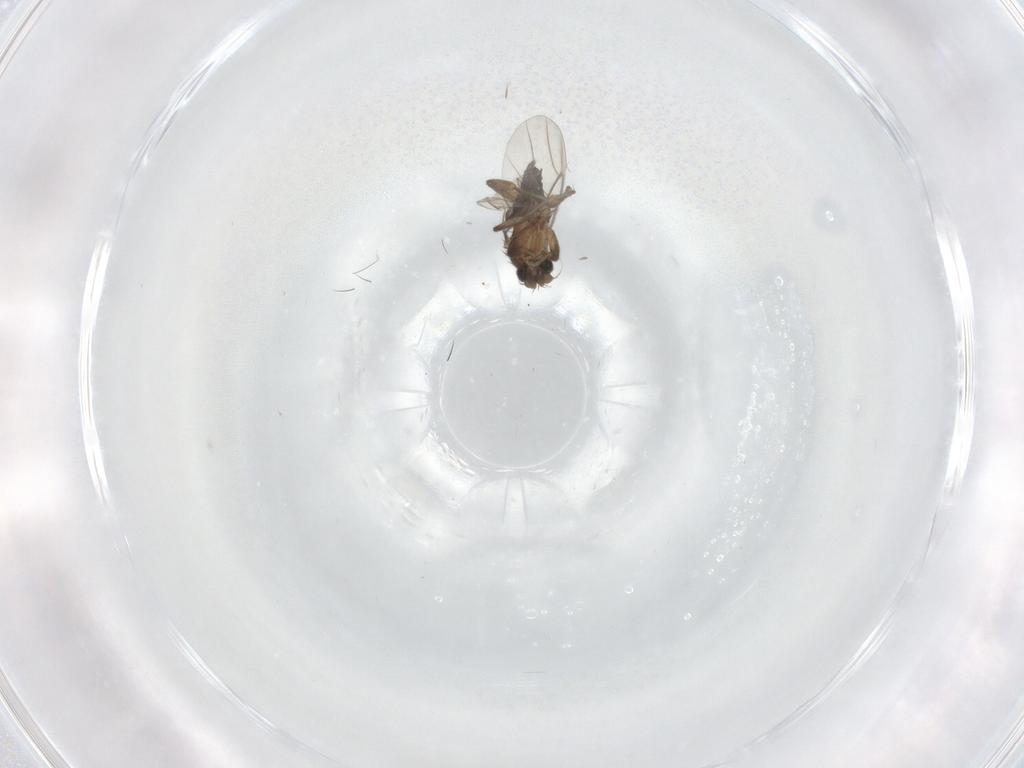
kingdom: Animalia
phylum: Arthropoda
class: Insecta
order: Diptera
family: Phoridae
